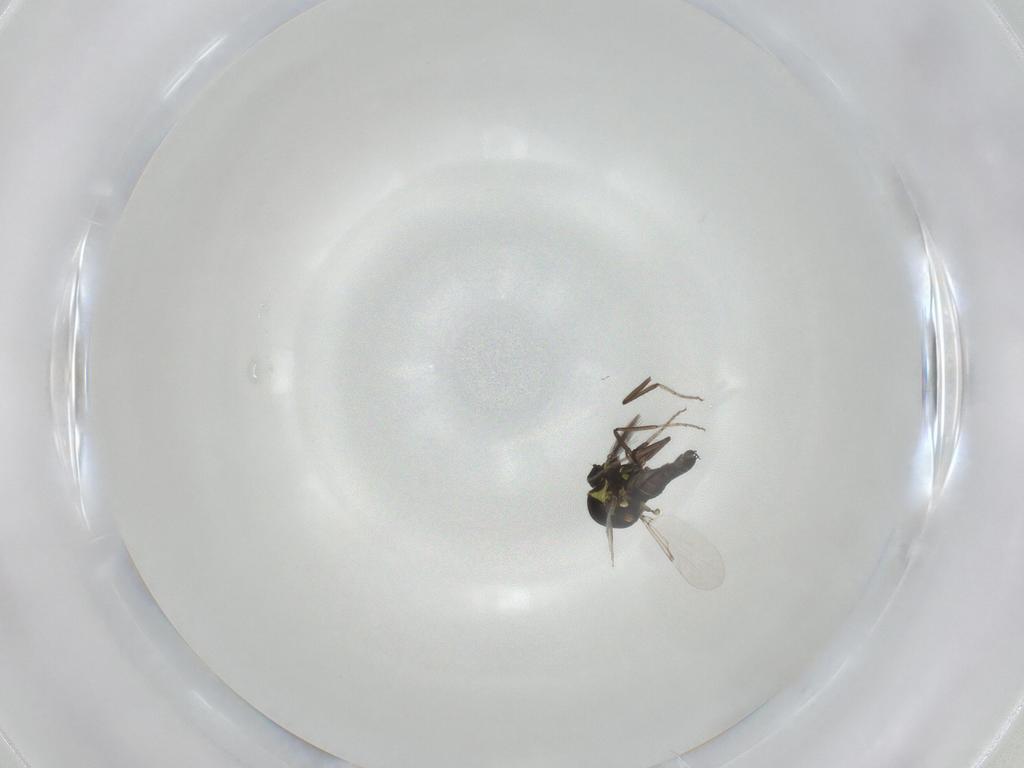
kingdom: Animalia
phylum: Arthropoda
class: Insecta
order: Diptera
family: Ceratopogonidae
